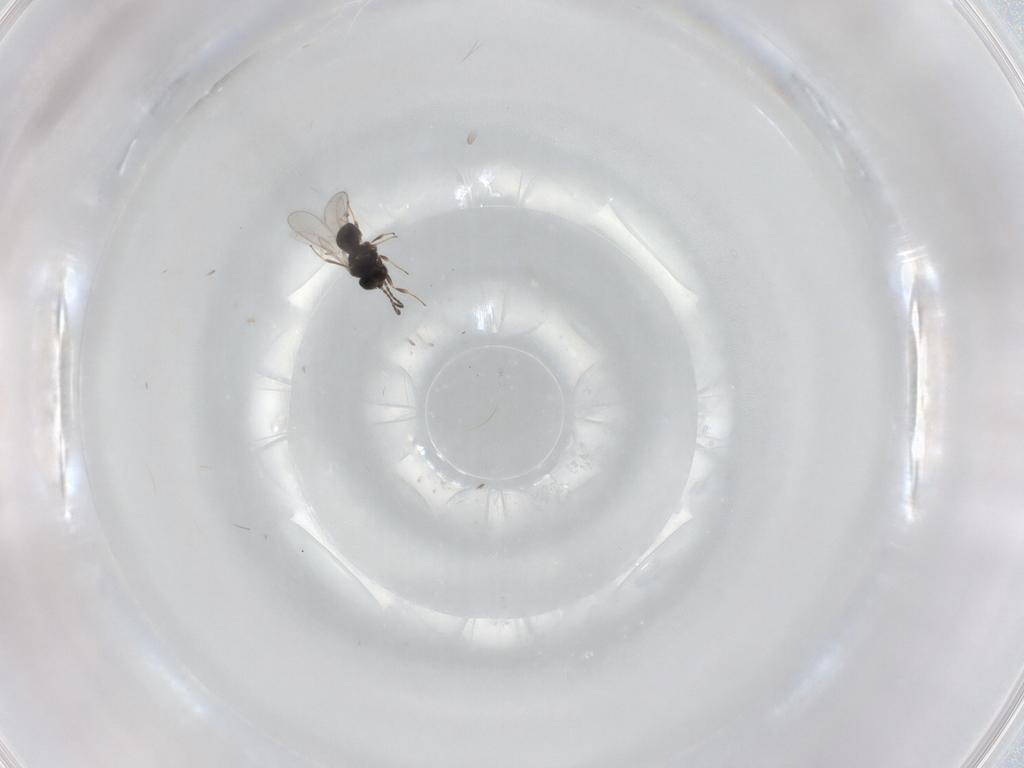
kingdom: Animalia
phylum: Arthropoda
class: Insecta
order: Hymenoptera
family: Scelionidae
